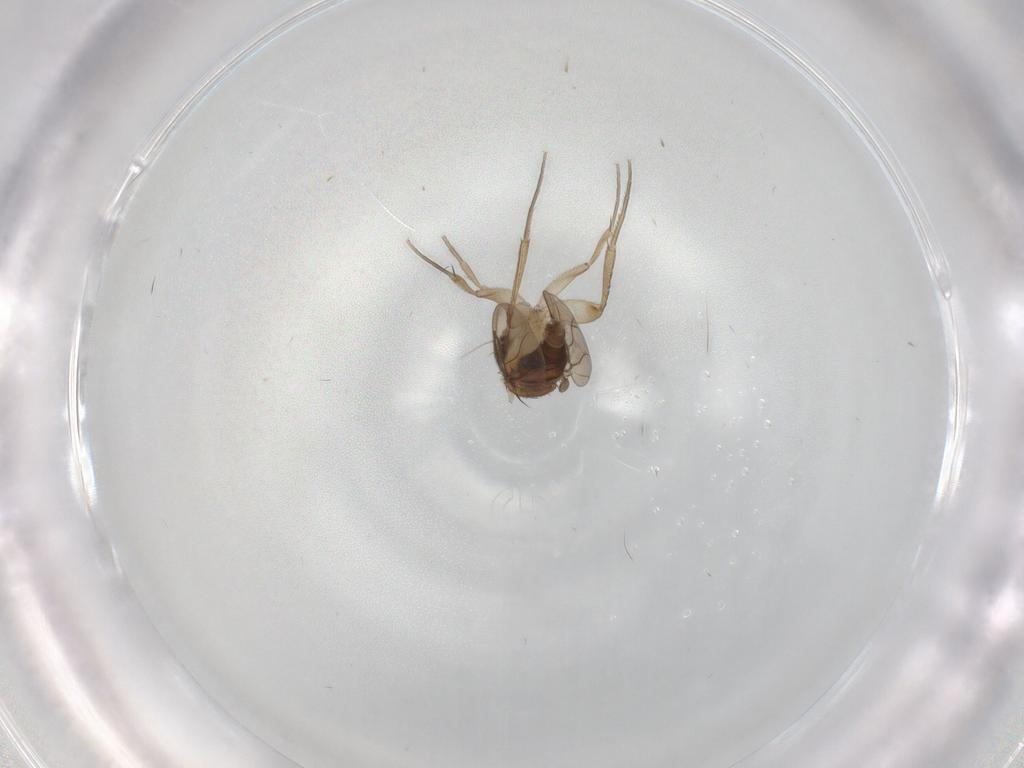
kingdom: Animalia
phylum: Arthropoda
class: Insecta
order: Diptera
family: Phoridae
